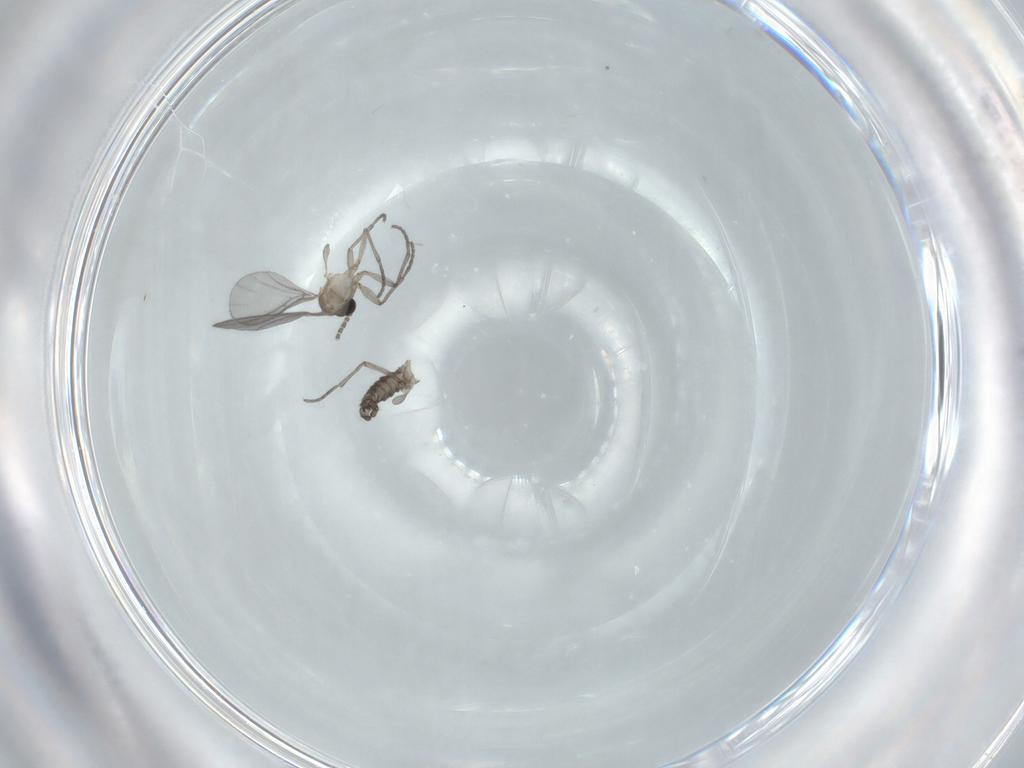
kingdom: Animalia
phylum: Arthropoda
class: Insecta
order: Diptera
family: Sciaridae
